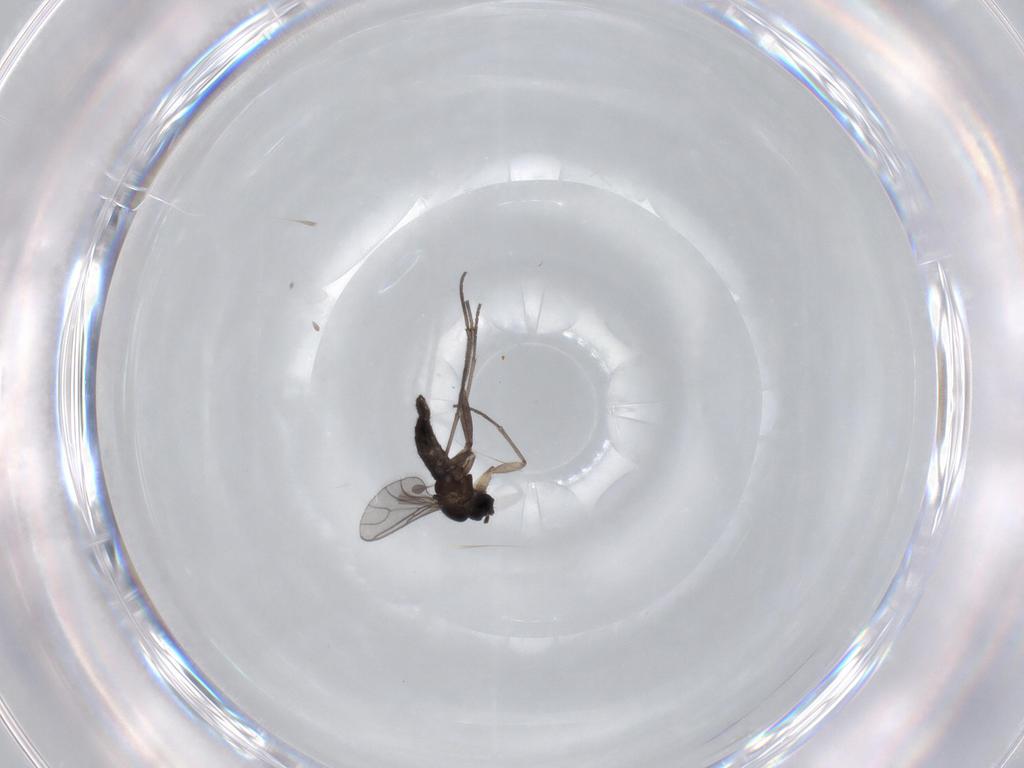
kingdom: Animalia
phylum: Arthropoda
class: Insecta
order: Diptera
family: Sciaridae
